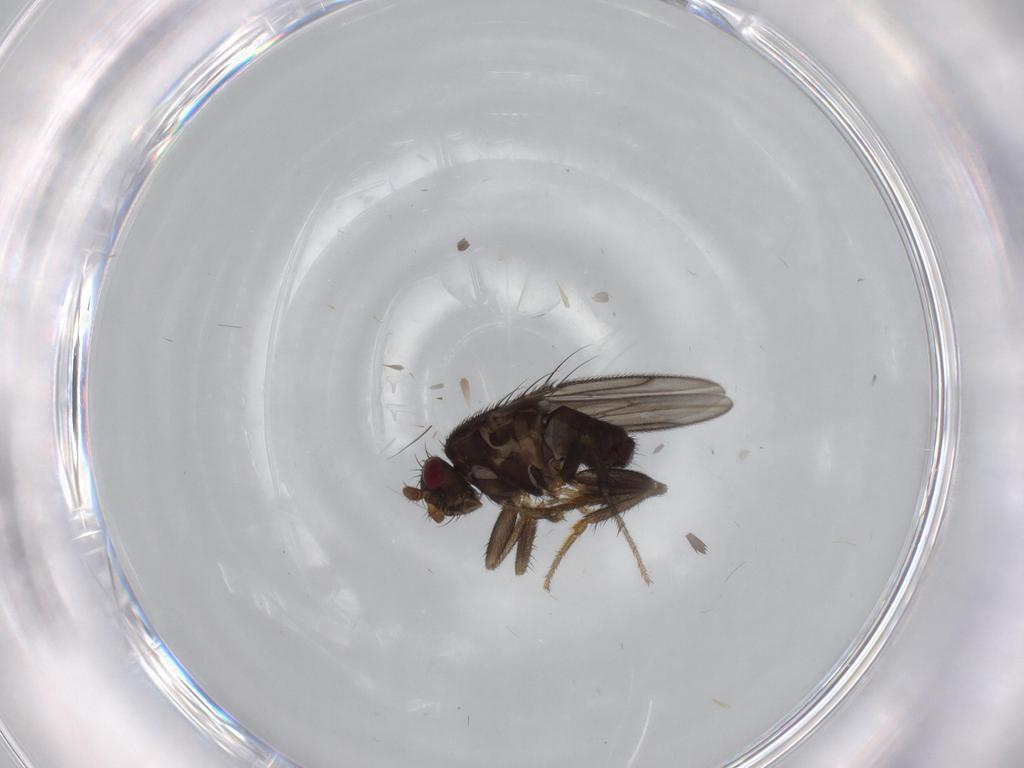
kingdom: Animalia
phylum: Arthropoda
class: Insecta
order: Diptera
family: Sphaeroceridae
